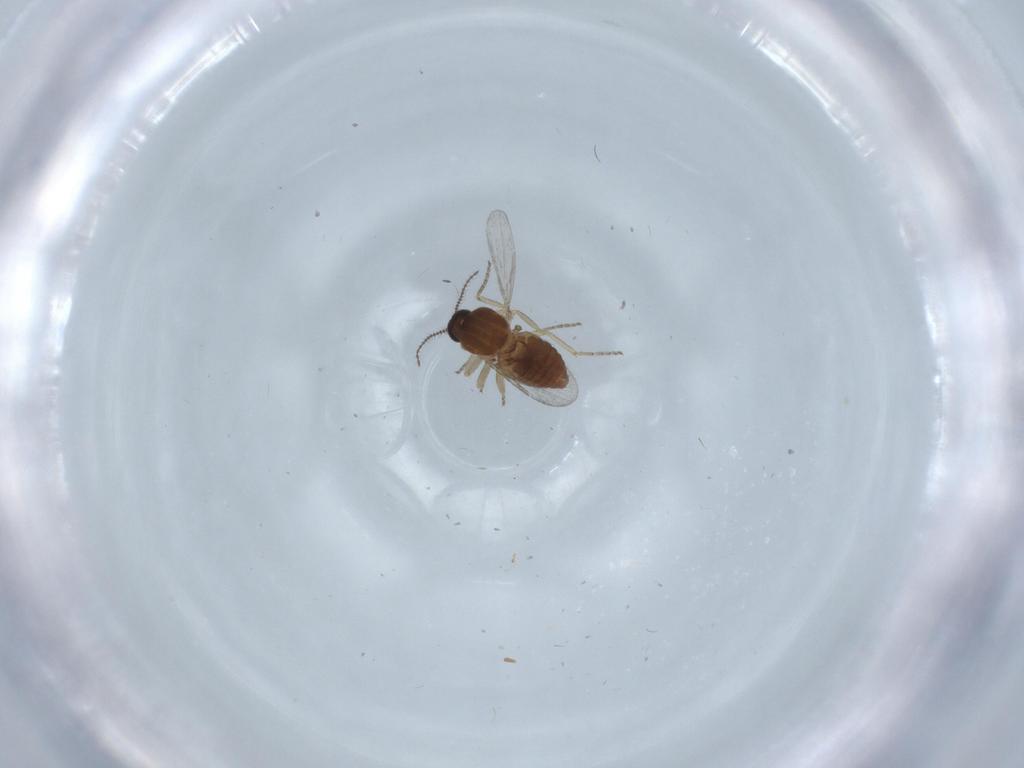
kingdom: Animalia
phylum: Arthropoda
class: Insecta
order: Diptera
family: Ceratopogonidae
